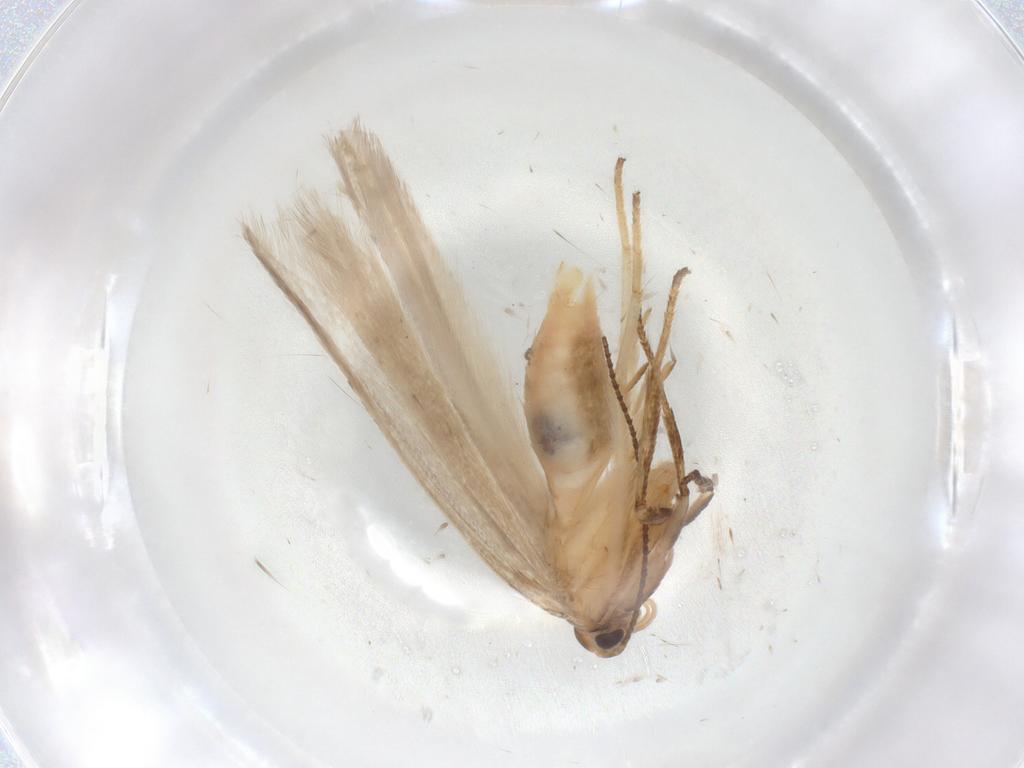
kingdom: Animalia
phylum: Arthropoda
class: Insecta
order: Lepidoptera
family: Gelechiidae
